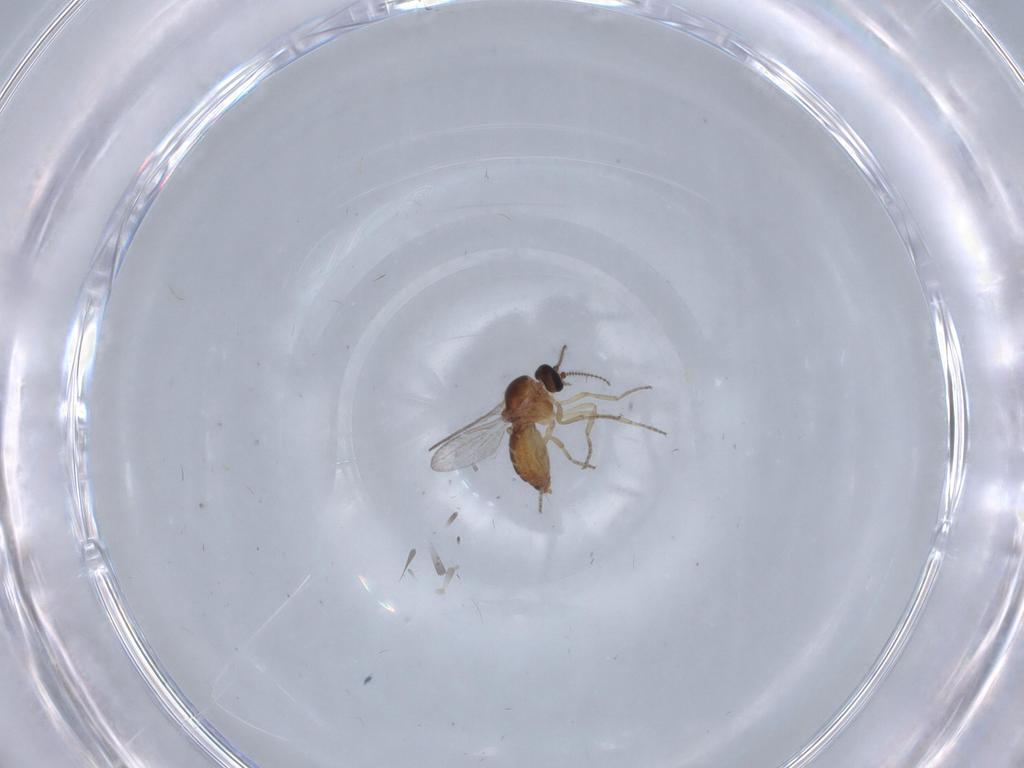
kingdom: Animalia
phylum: Arthropoda
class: Insecta
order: Diptera
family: Ceratopogonidae
